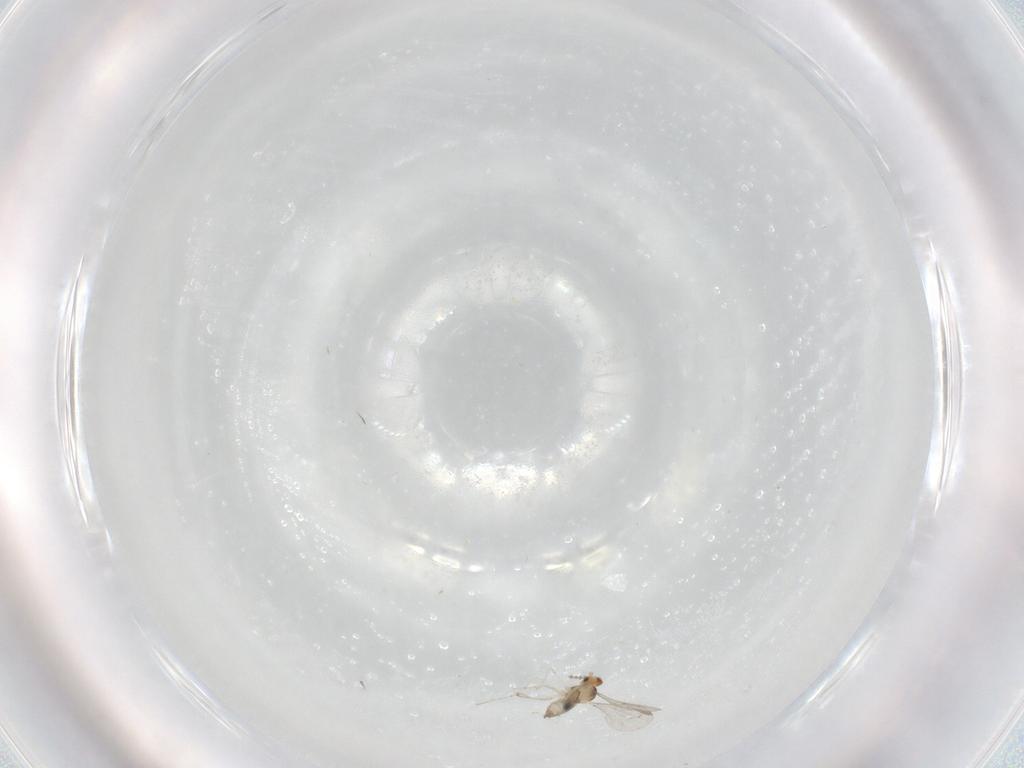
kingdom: Animalia
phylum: Arthropoda
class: Insecta
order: Diptera
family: Cecidomyiidae
